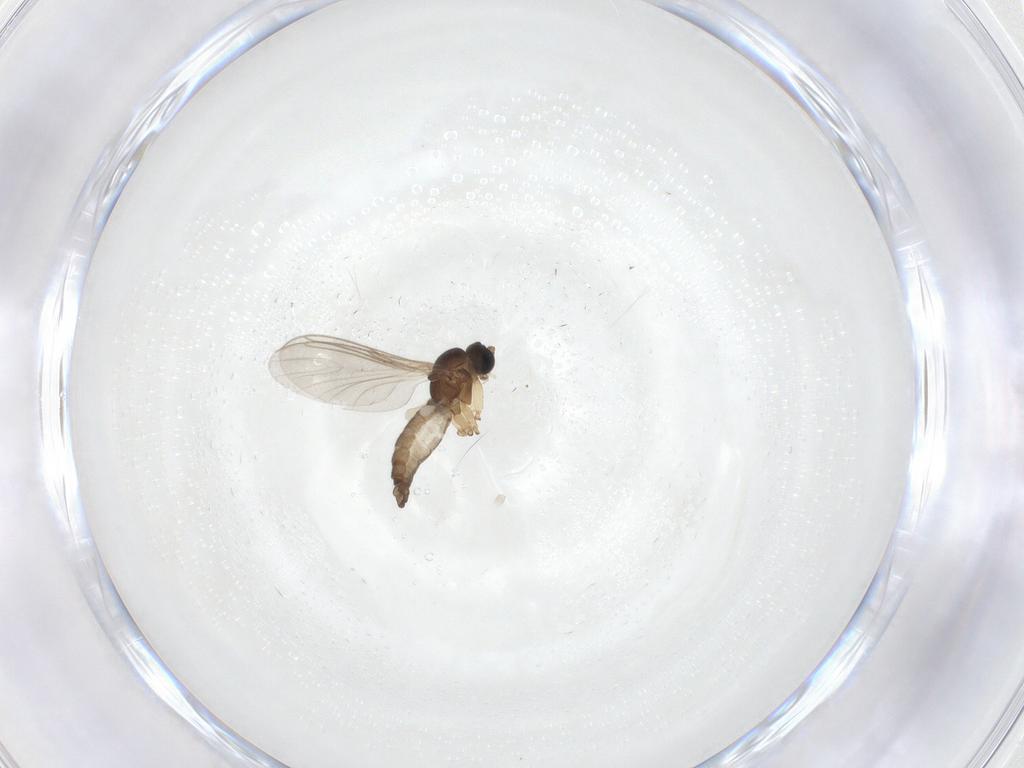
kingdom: Animalia
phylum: Arthropoda
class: Insecta
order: Diptera
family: Sciaridae
